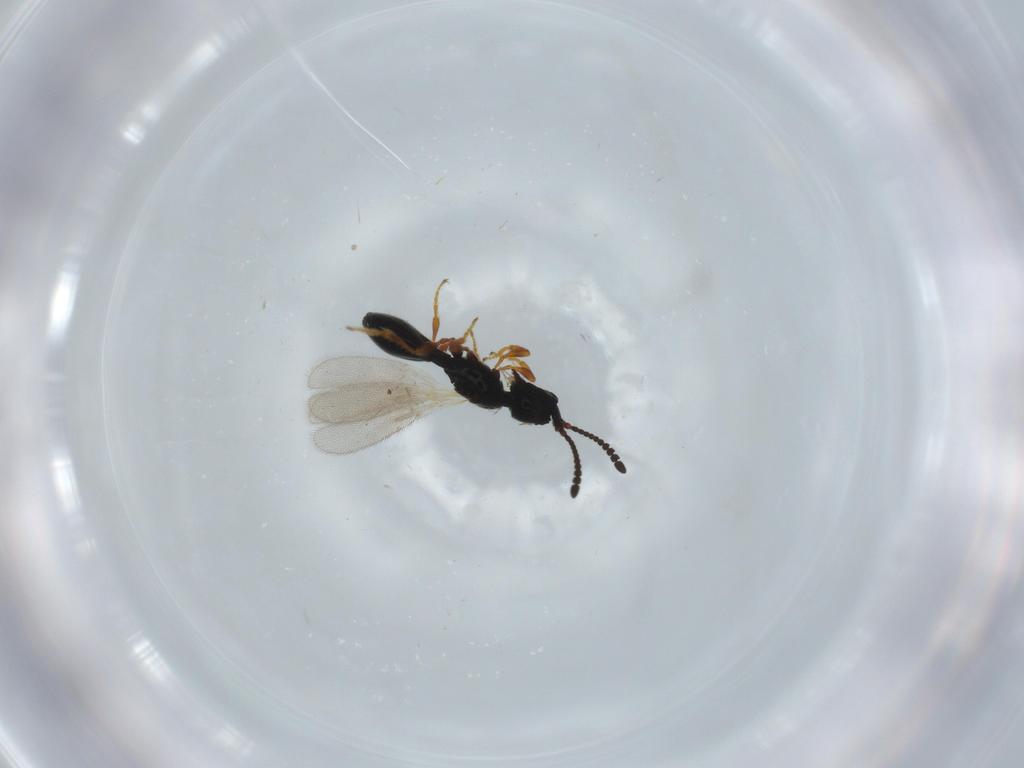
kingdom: Animalia
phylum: Arthropoda
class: Insecta
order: Hymenoptera
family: Diapriidae
